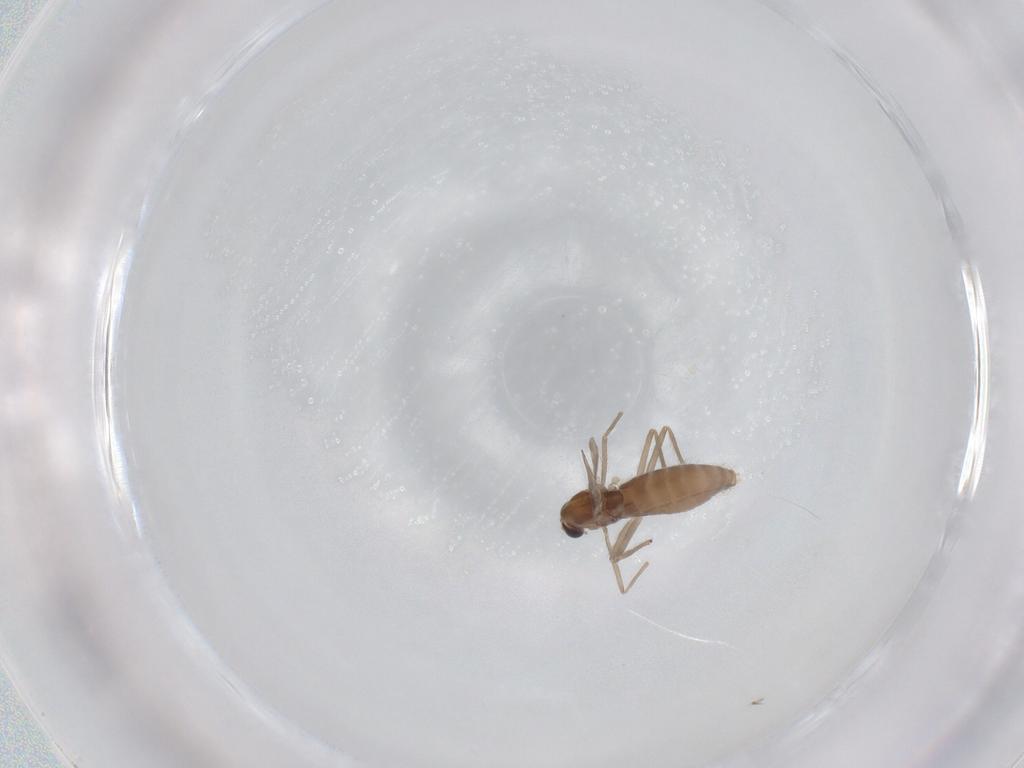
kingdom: Animalia
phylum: Arthropoda
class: Insecta
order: Diptera
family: Chironomidae
